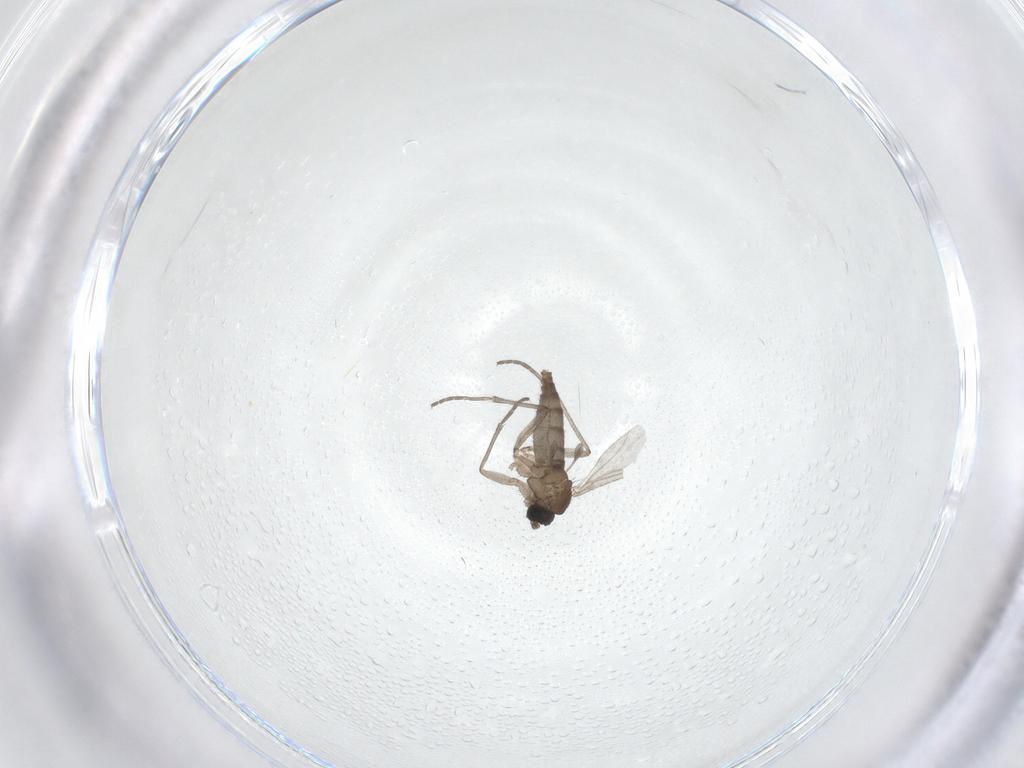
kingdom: Animalia
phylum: Arthropoda
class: Insecta
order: Diptera
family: Sciaridae
